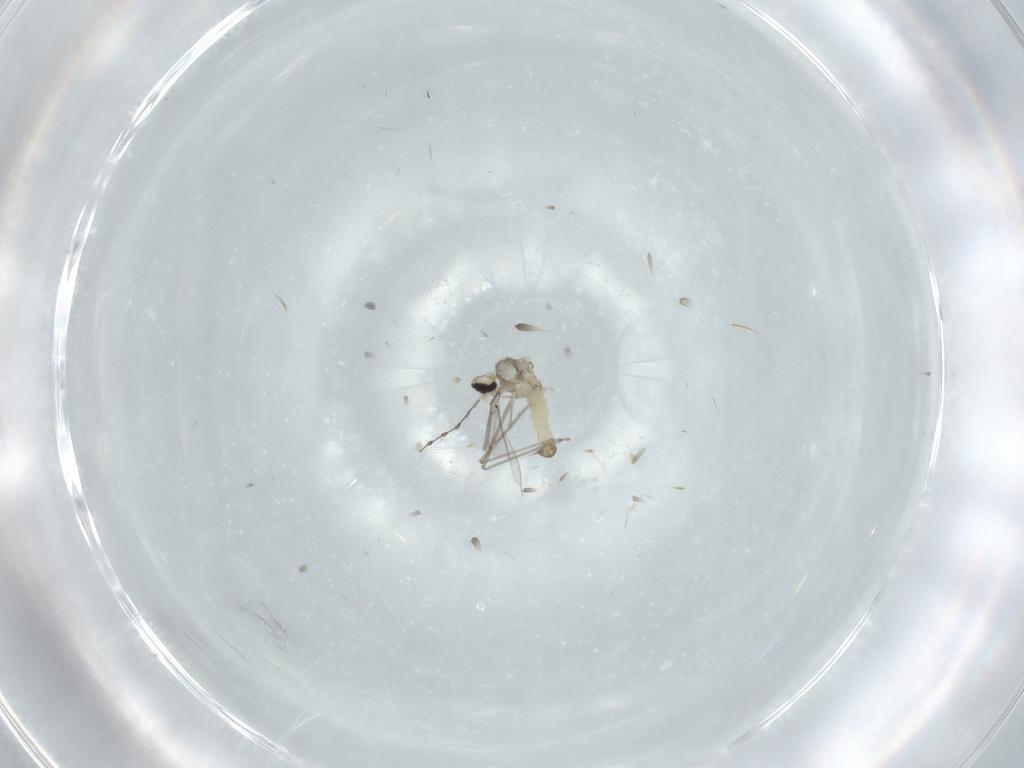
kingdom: Animalia
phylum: Arthropoda
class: Insecta
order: Diptera
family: Cecidomyiidae
